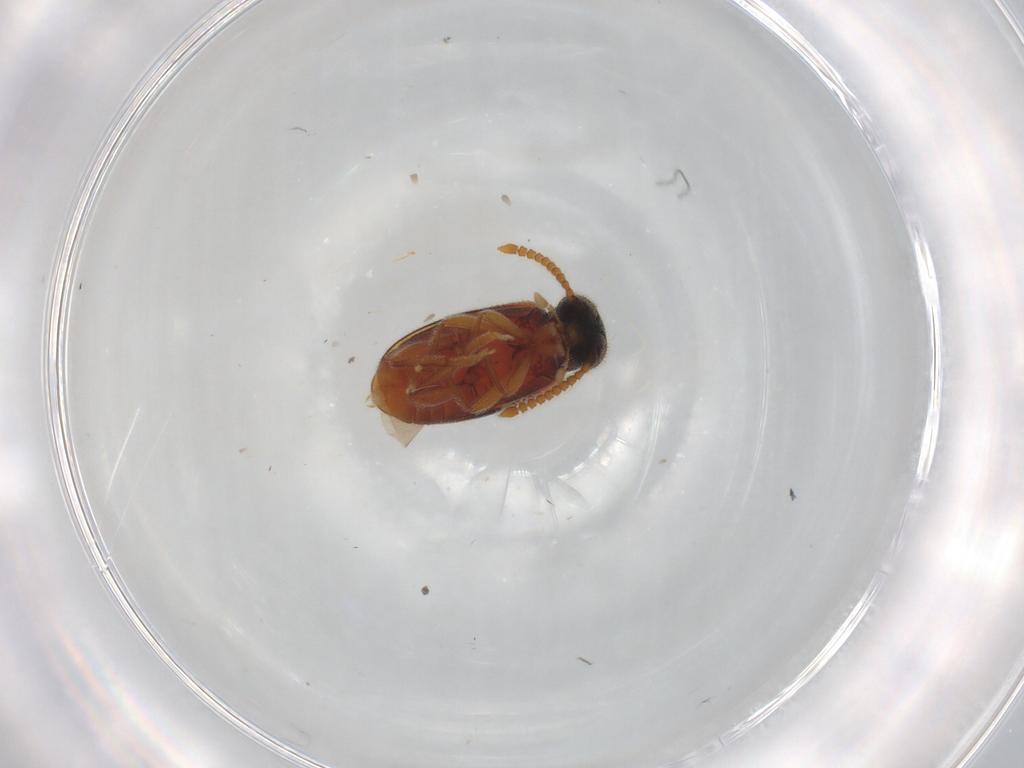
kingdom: Animalia
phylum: Arthropoda
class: Insecta
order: Coleoptera
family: Aderidae
